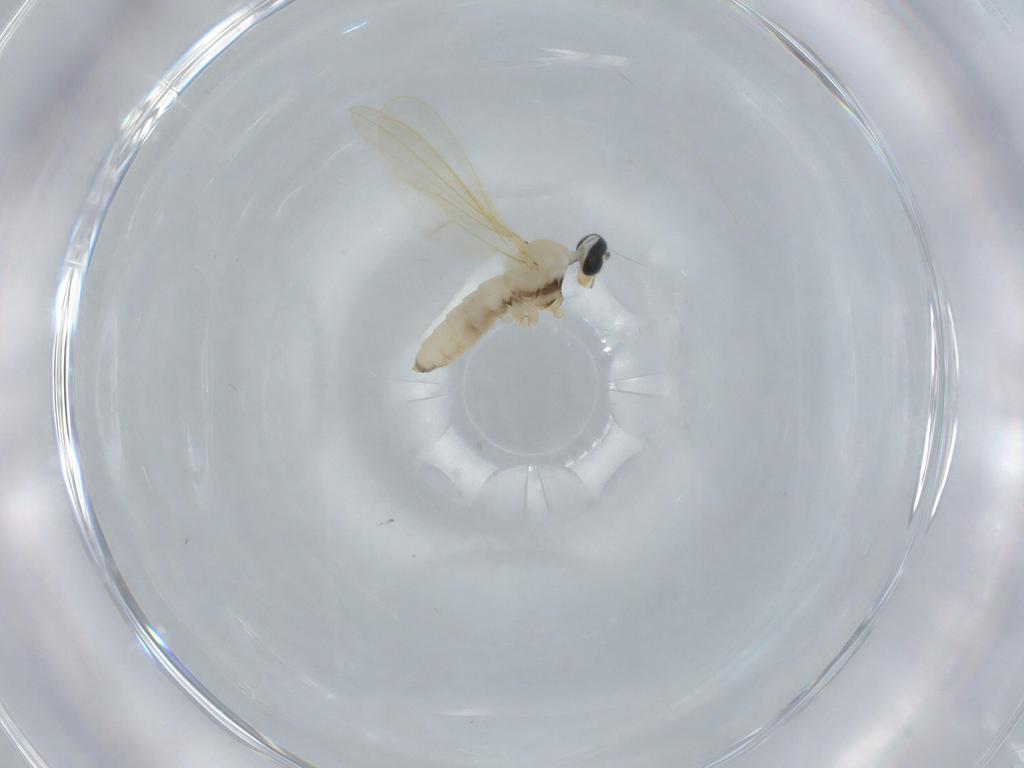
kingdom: Animalia
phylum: Arthropoda
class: Insecta
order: Diptera
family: Cecidomyiidae
